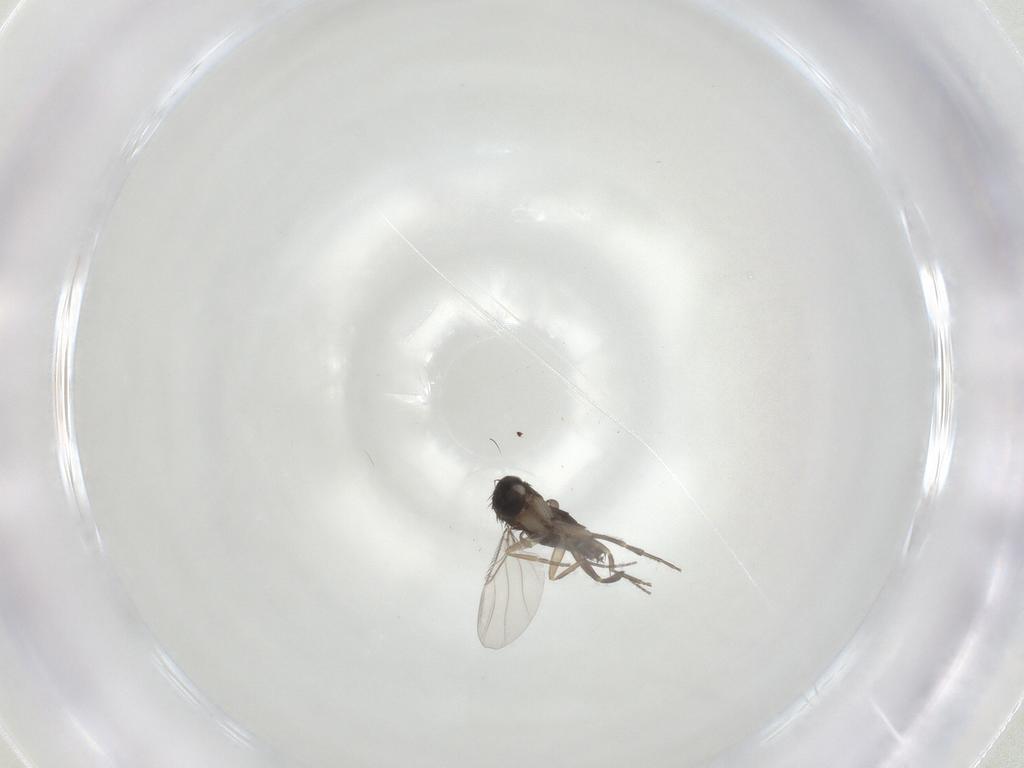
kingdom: Animalia
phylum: Arthropoda
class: Insecta
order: Diptera
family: Phoridae
